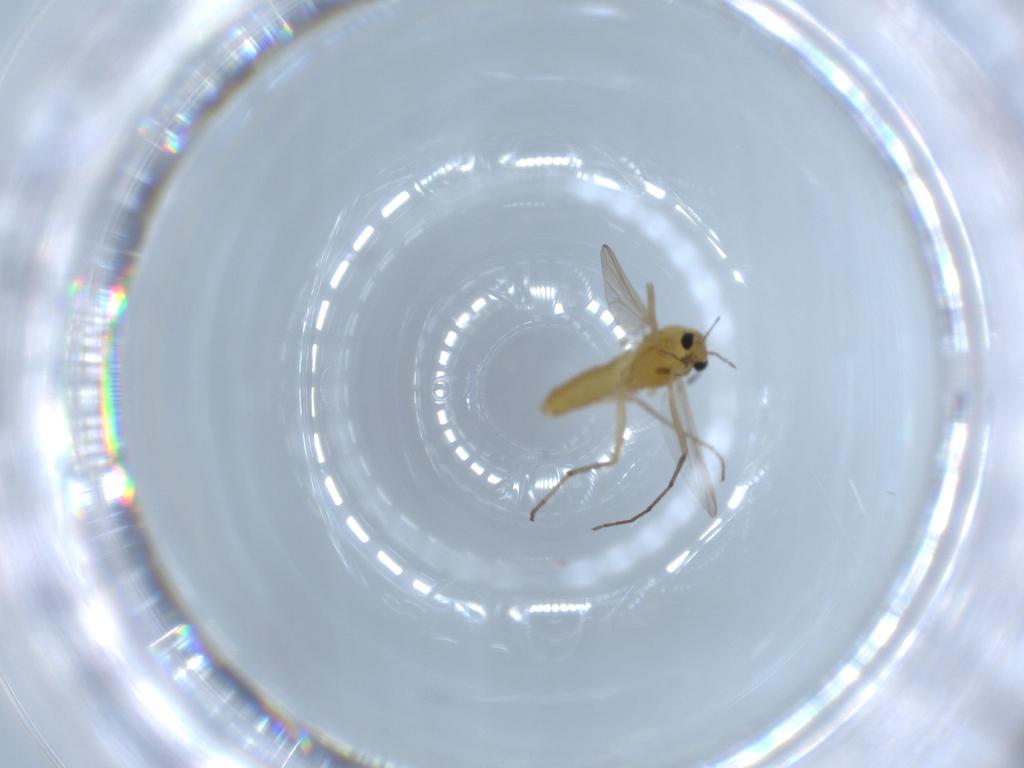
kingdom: Animalia
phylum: Arthropoda
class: Insecta
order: Diptera
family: Chironomidae
